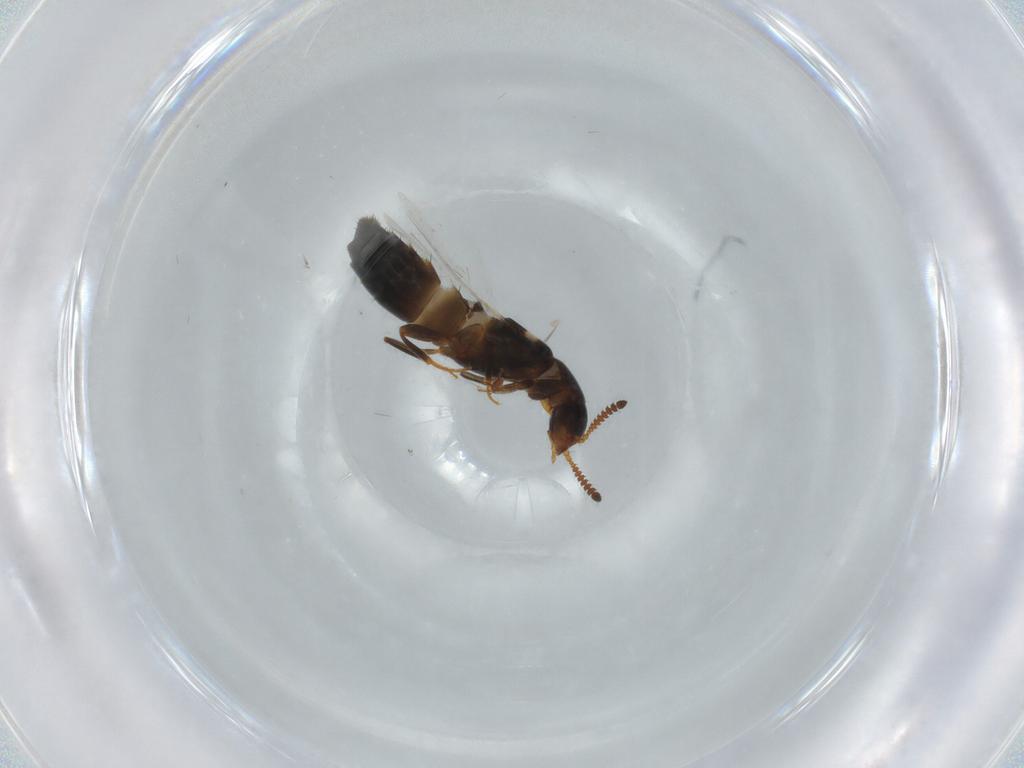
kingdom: Animalia
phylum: Arthropoda
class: Insecta
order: Coleoptera
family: Staphylinidae
